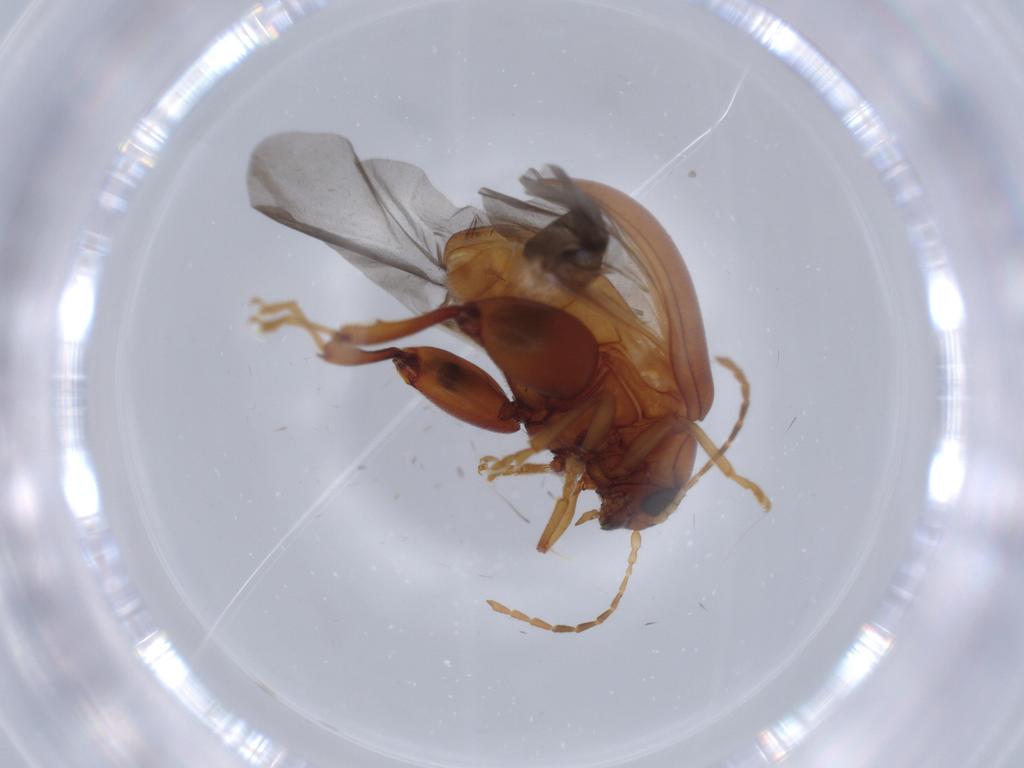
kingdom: Animalia
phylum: Arthropoda
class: Insecta
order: Coleoptera
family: Chrysomelidae
